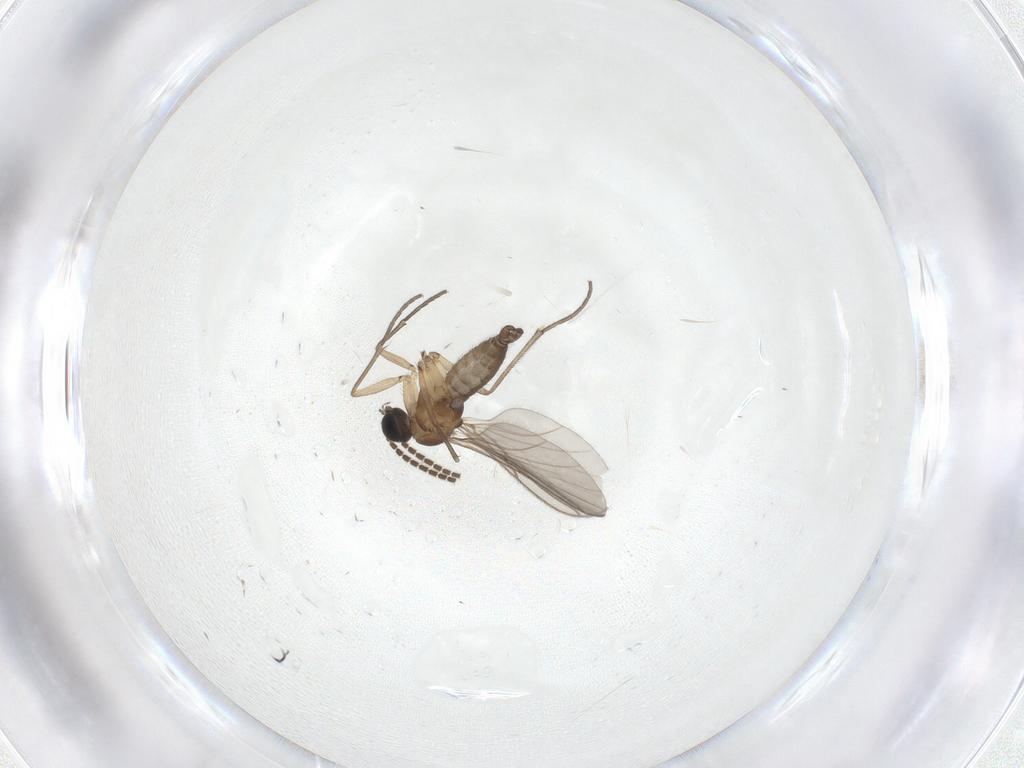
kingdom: Animalia
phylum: Arthropoda
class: Insecta
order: Diptera
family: Sciaridae
